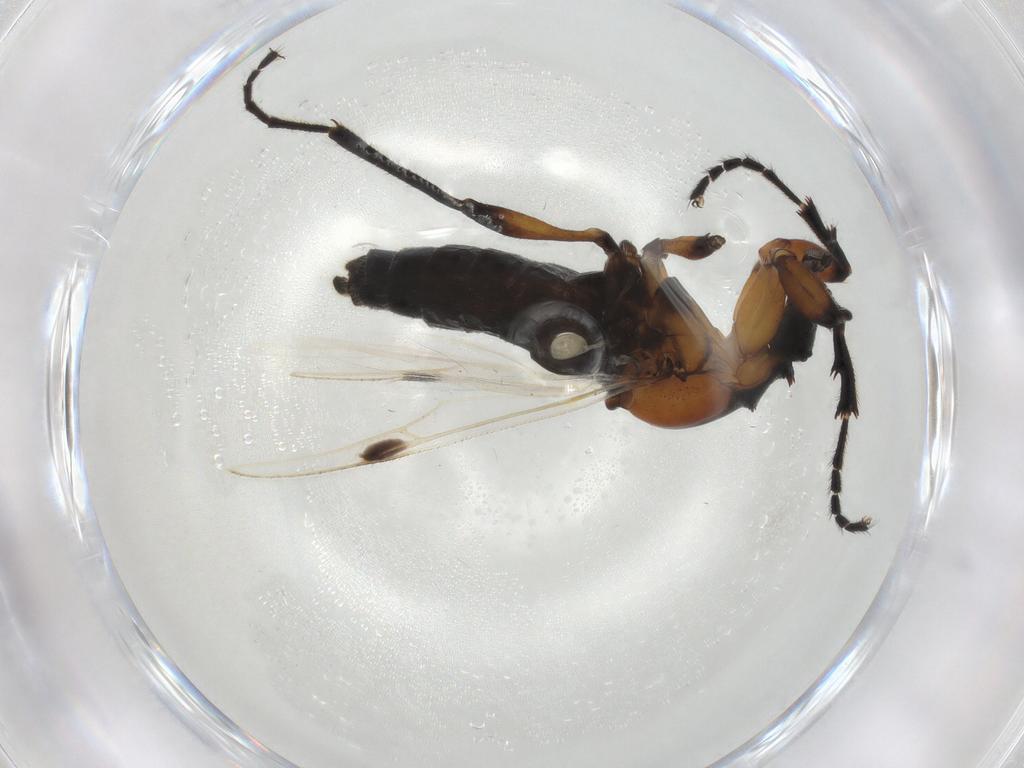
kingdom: Animalia
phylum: Arthropoda
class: Insecta
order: Diptera
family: Bibionidae
